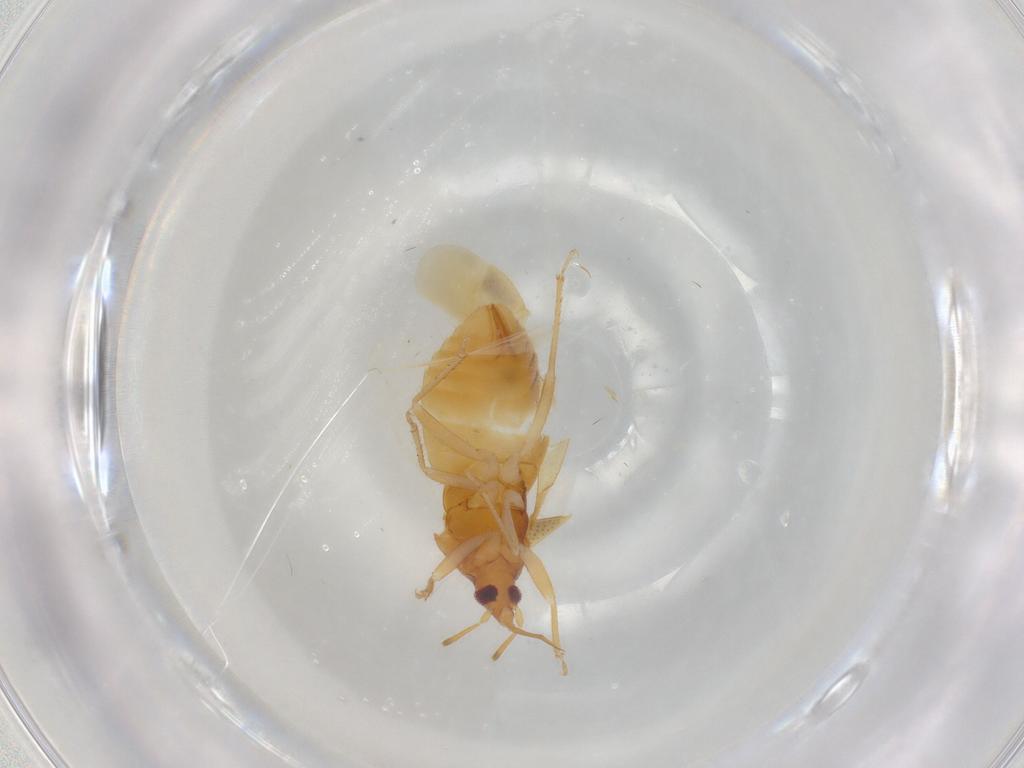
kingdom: Animalia
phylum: Arthropoda
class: Insecta
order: Hemiptera
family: Lasiochilidae
